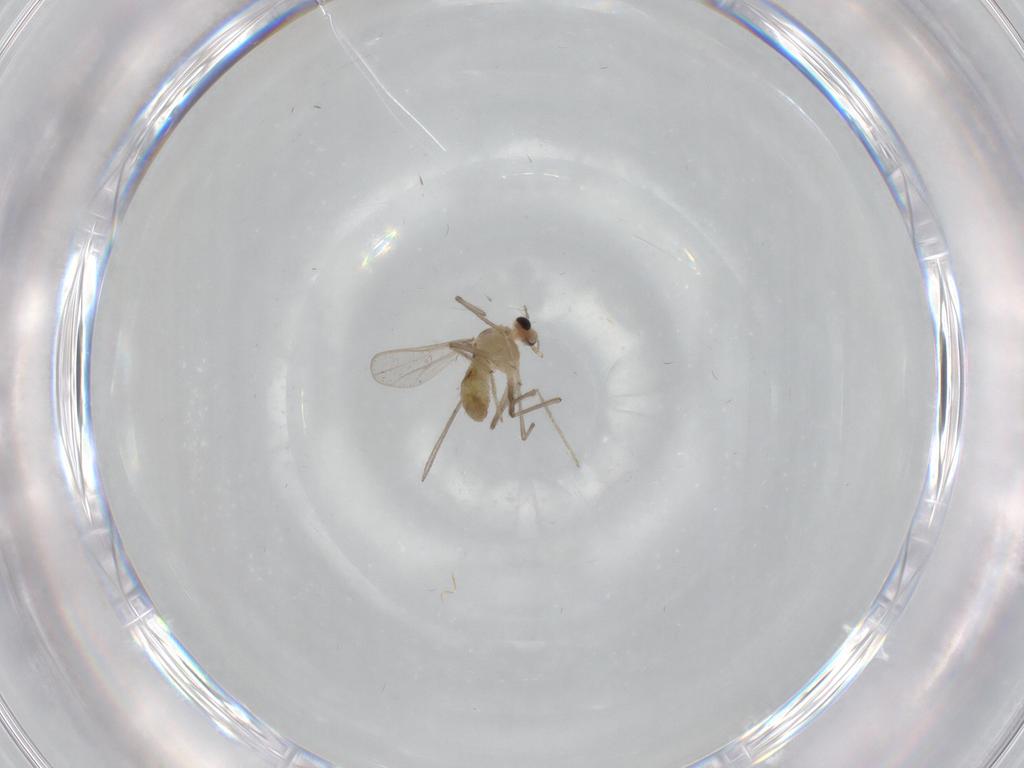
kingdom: Animalia
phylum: Arthropoda
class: Insecta
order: Diptera
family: Chironomidae
